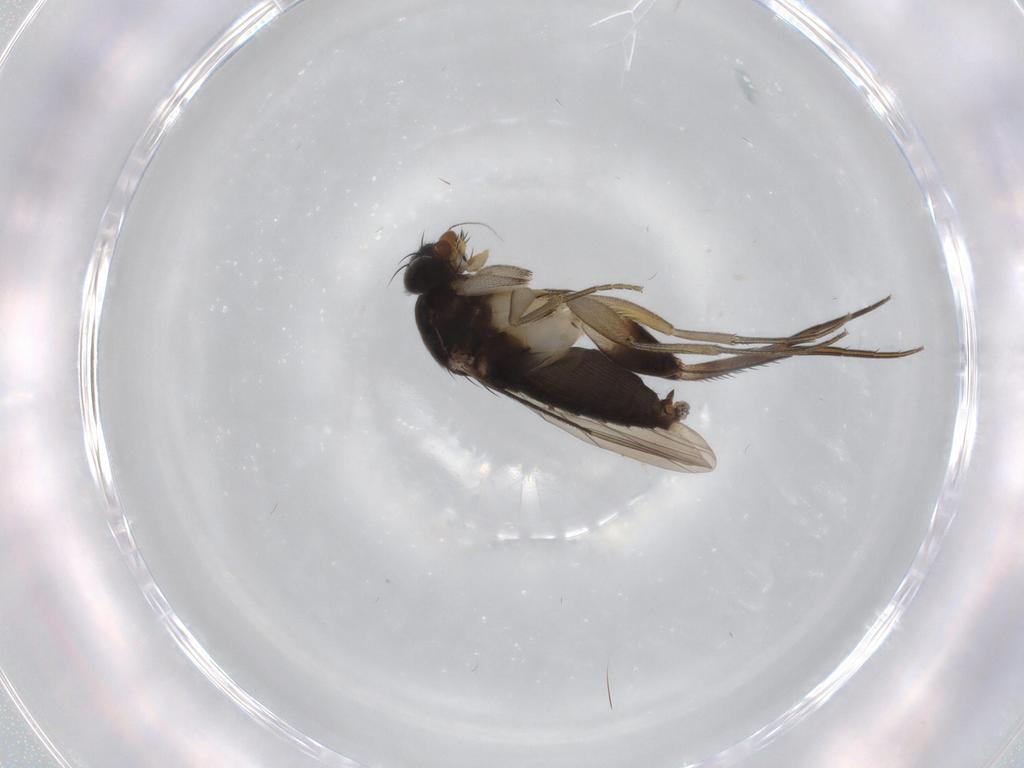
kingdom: Animalia
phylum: Arthropoda
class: Insecta
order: Diptera
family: Phoridae
